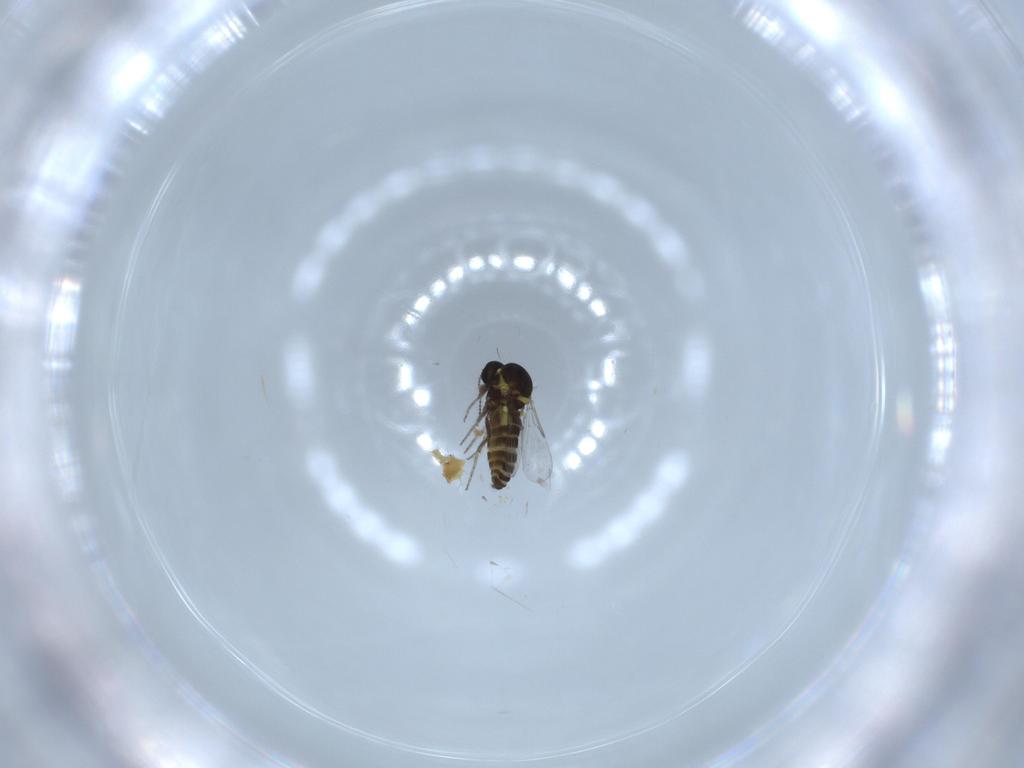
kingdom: Animalia
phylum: Arthropoda
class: Insecta
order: Diptera
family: Ceratopogonidae
